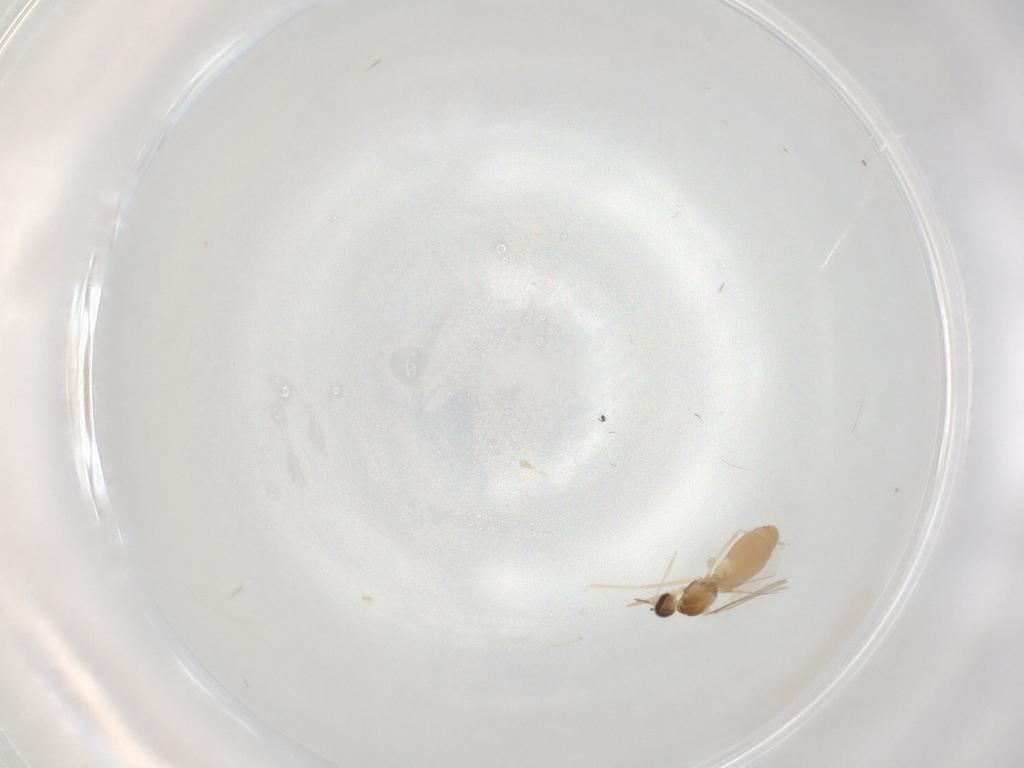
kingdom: Animalia
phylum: Arthropoda
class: Insecta
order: Diptera
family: Cecidomyiidae
